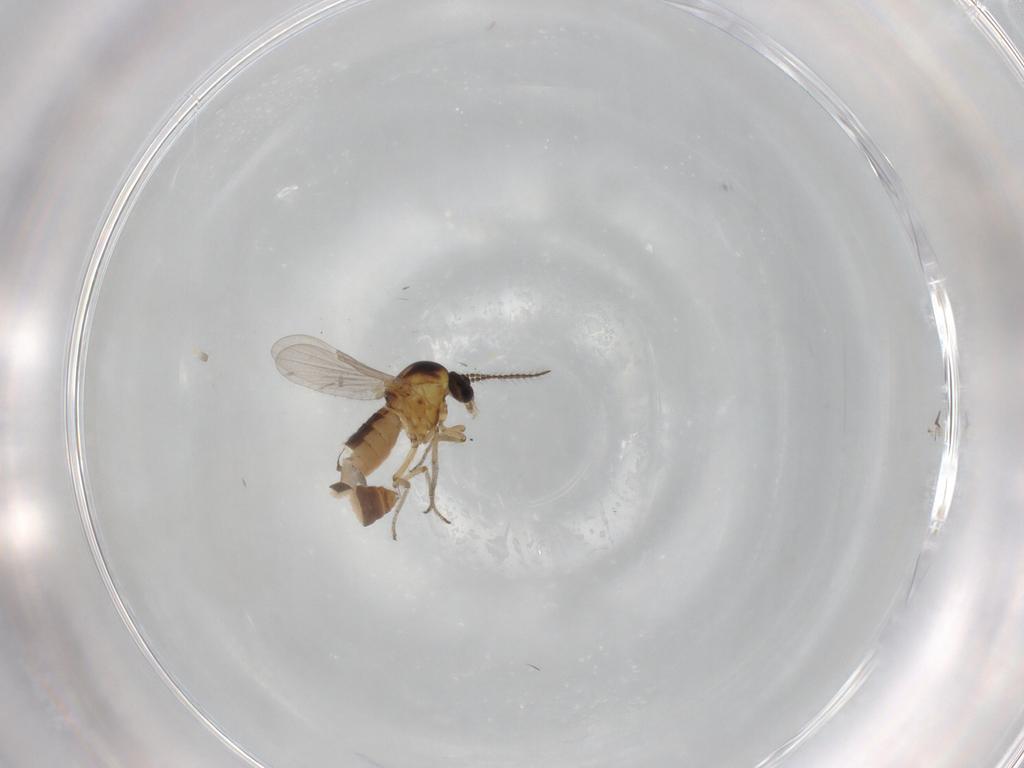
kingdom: Animalia
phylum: Arthropoda
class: Insecta
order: Diptera
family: Ceratopogonidae
